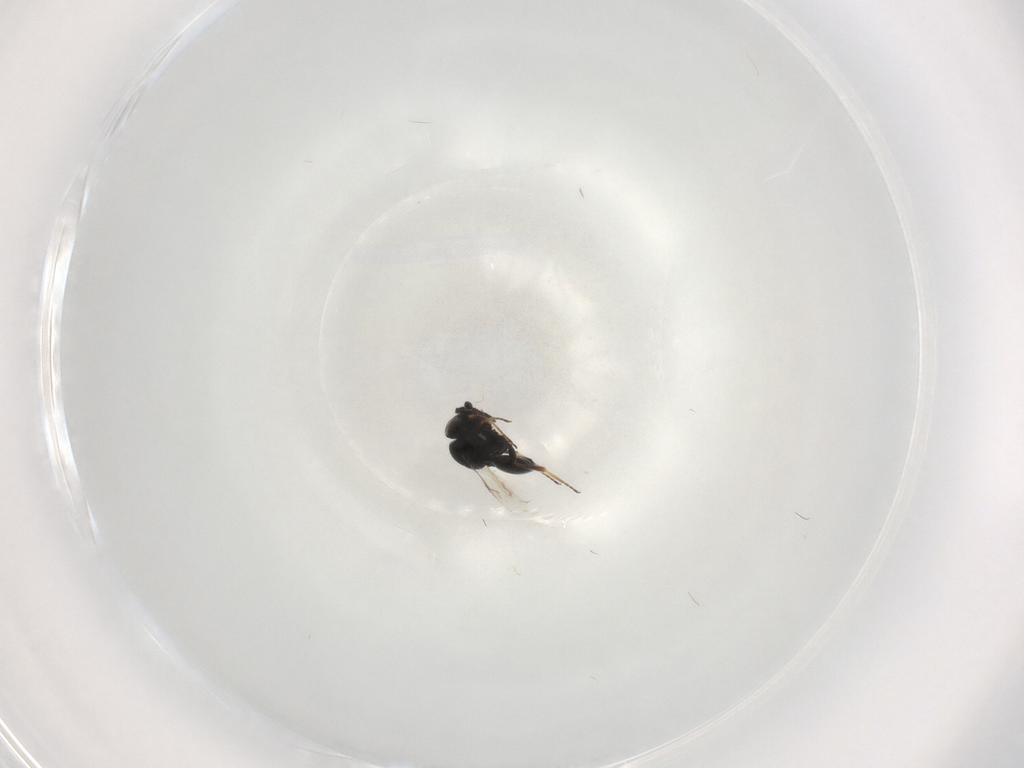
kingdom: Animalia
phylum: Arthropoda
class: Insecta
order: Hymenoptera
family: Scelionidae
